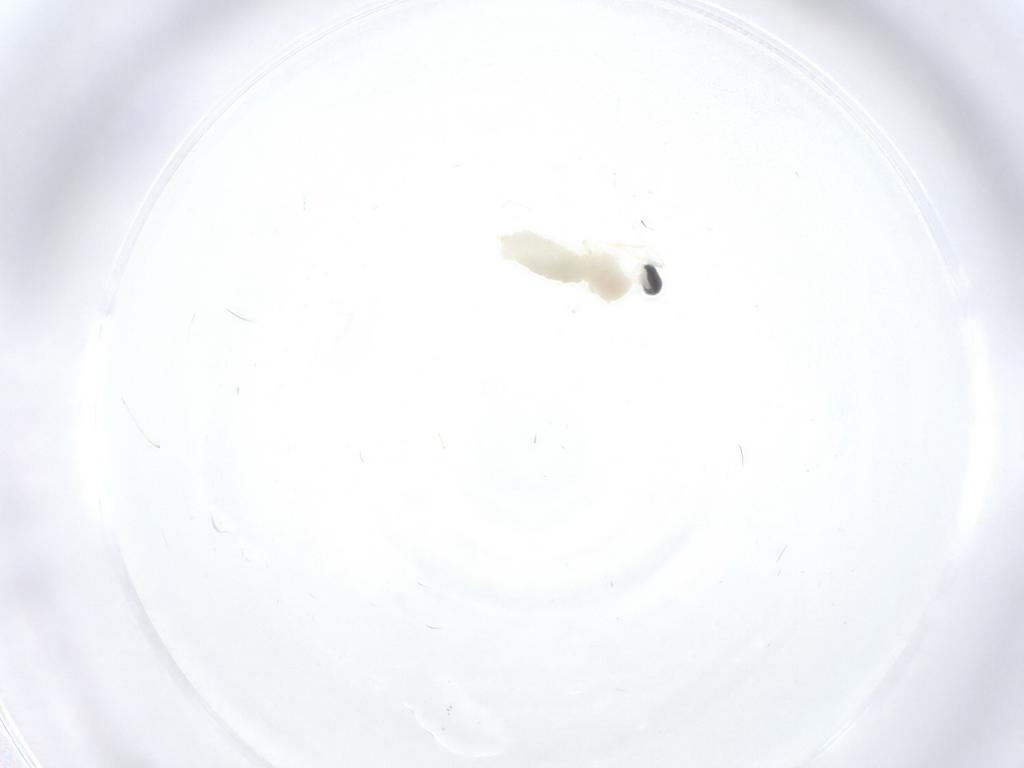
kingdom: Animalia
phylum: Arthropoda
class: Insecta
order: Diptera
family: Cecidomyiidae
